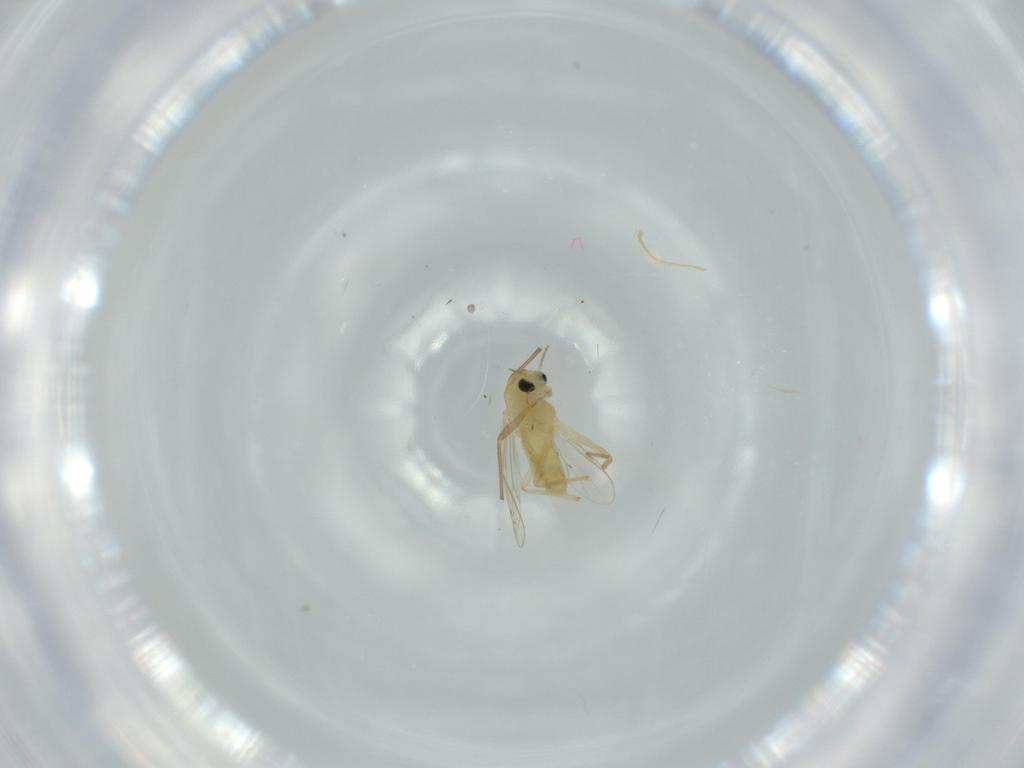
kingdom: Animalia
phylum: Arthropoda
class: Insecta
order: Diptera
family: Chironomidae
